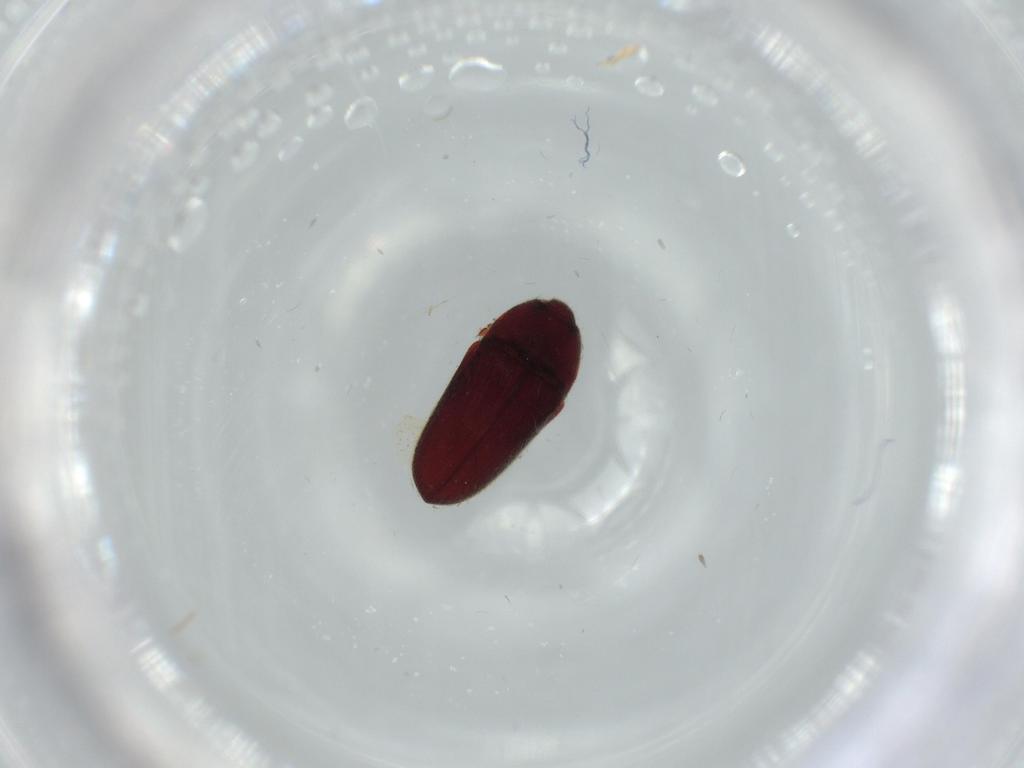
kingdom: Animalia
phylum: Arthropoda
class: Insecta
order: Coleoptera
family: Throscidae
